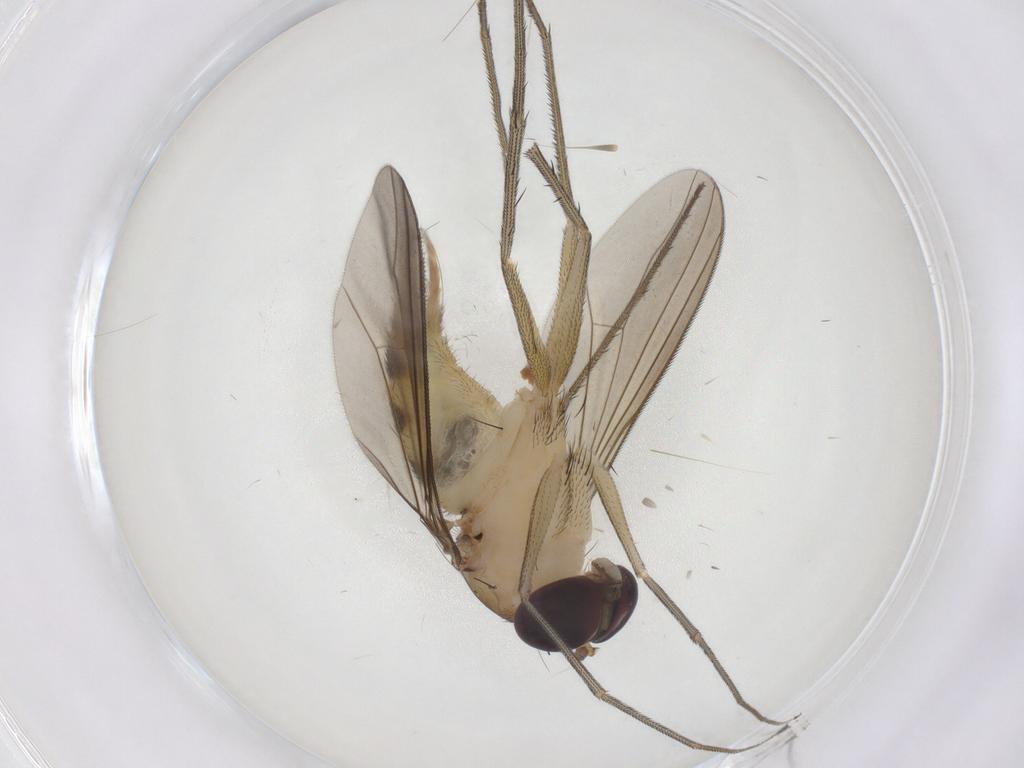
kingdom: Animalia
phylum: Arthropoda
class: Insecta
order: Diptera
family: Dolichopodidae
